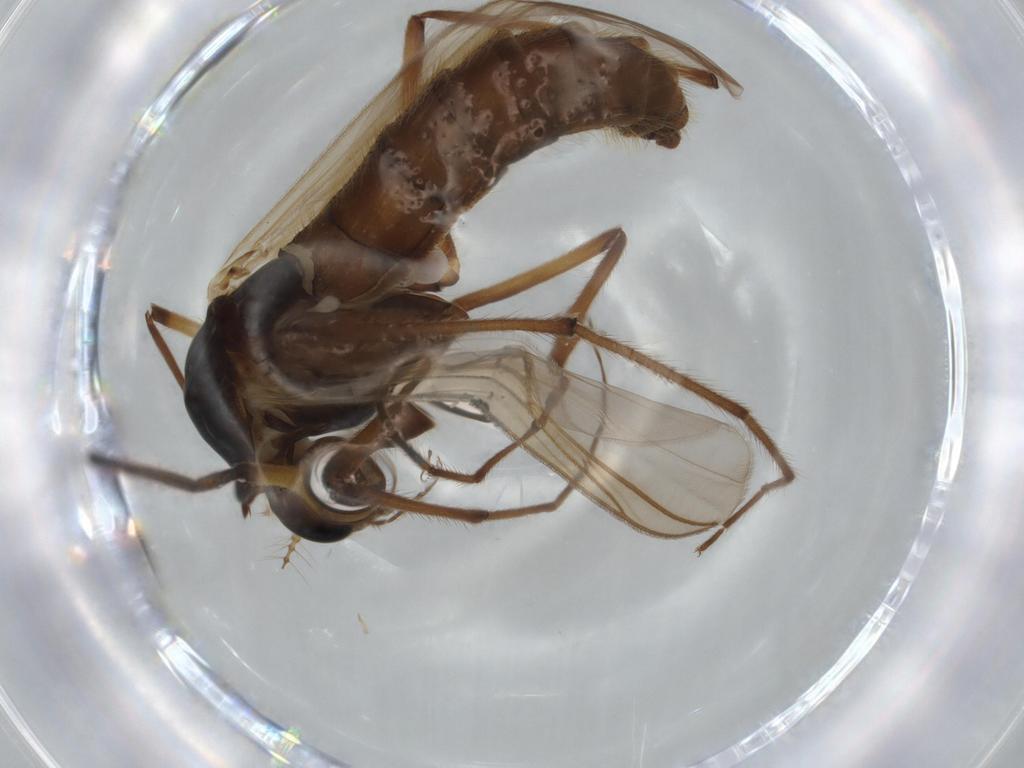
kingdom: Animalia
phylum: Arthropoda
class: Insecta
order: Diptera
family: Chironomidae
